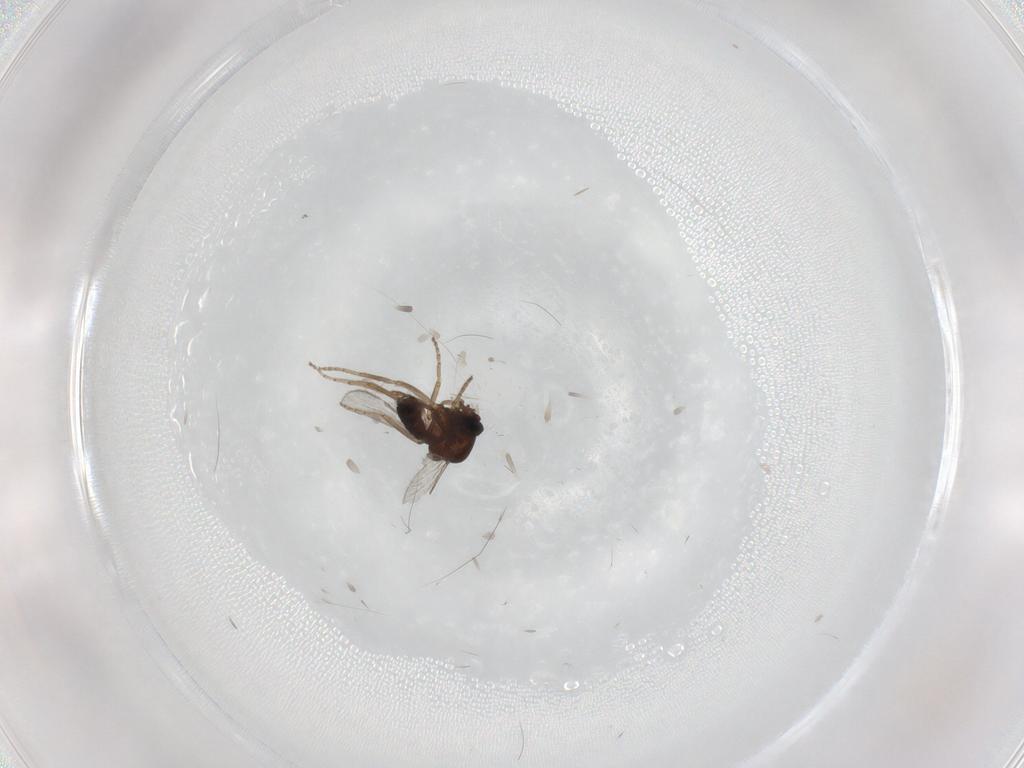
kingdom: Animalia
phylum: Arthropoda
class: Insecta
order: Diptera
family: Ceratopogonidae
